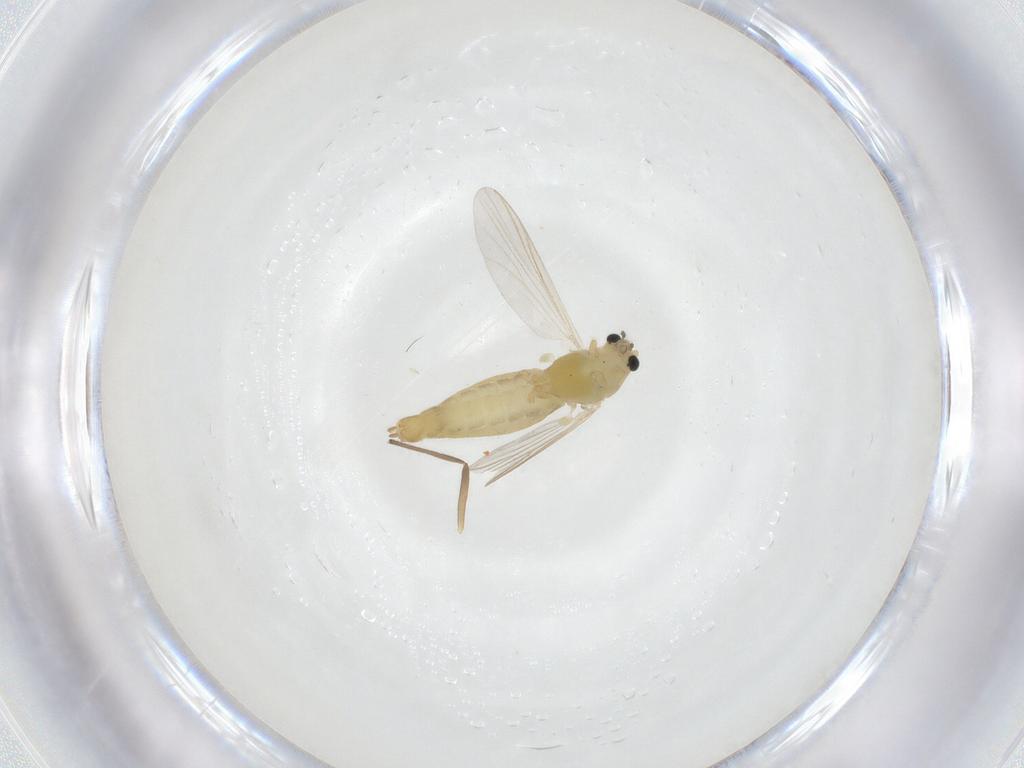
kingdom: Animalia
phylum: Arthropoda
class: Insecta
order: Diptera
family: Chironomidae
